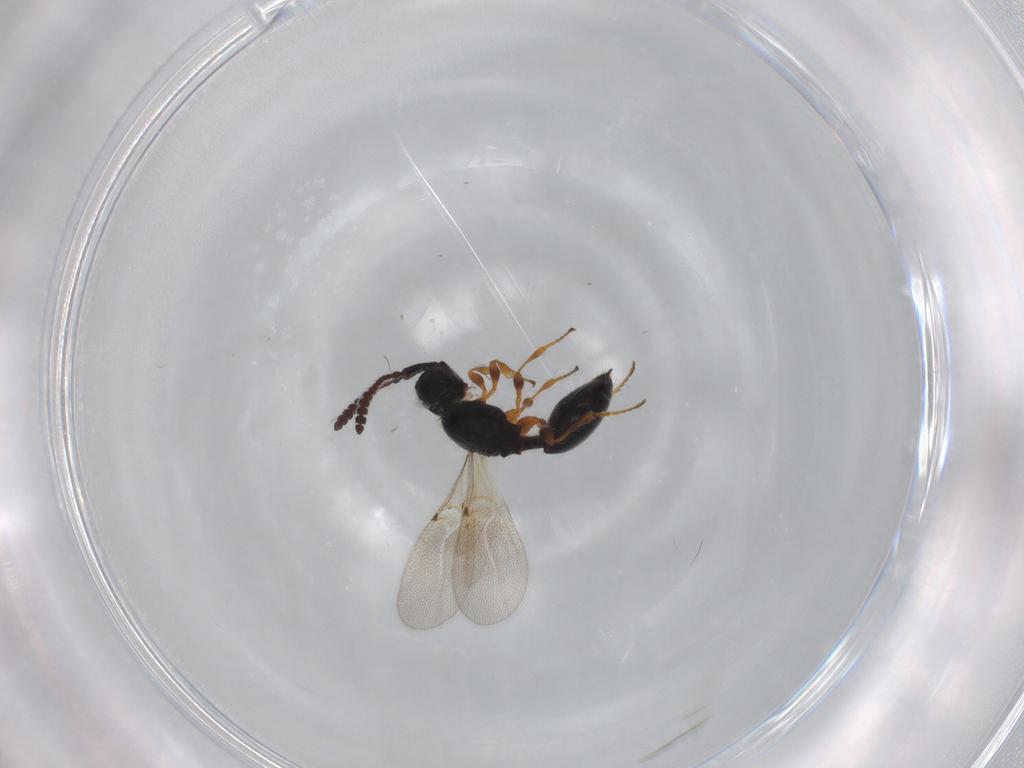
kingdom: Animalia
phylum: Arthropoda
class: Insecta
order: Hymenoptera
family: Diapriidae
